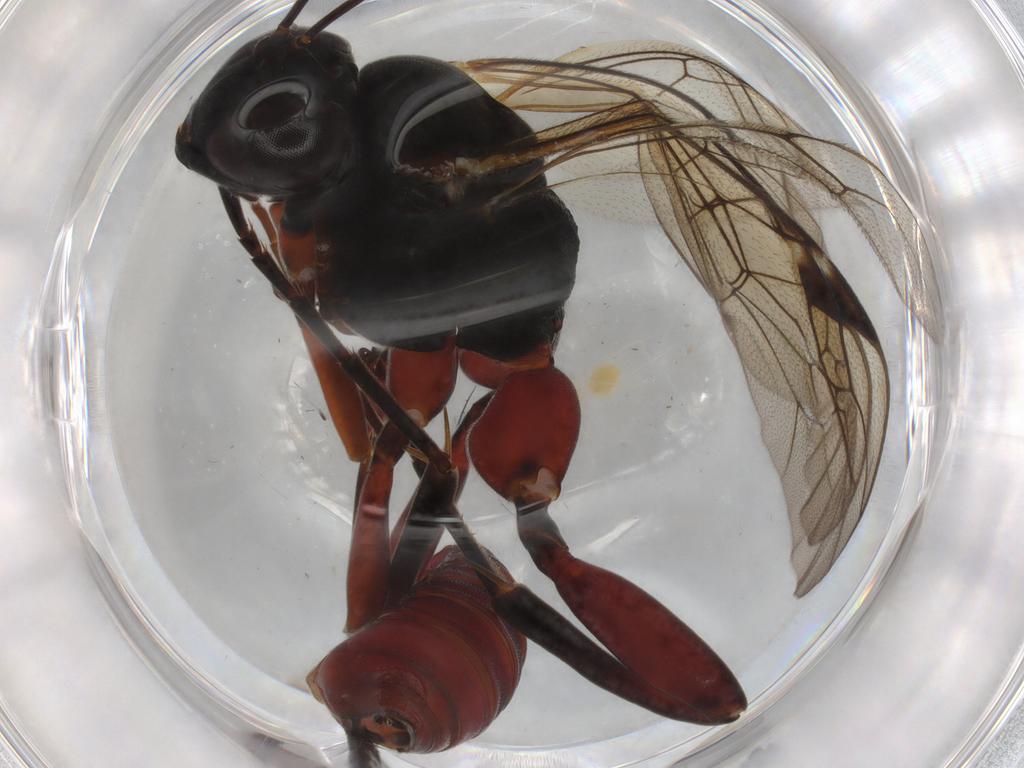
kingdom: Animalia
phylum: Arthropoda
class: Insecta
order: Hymenoptera
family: Ichneumonidae
